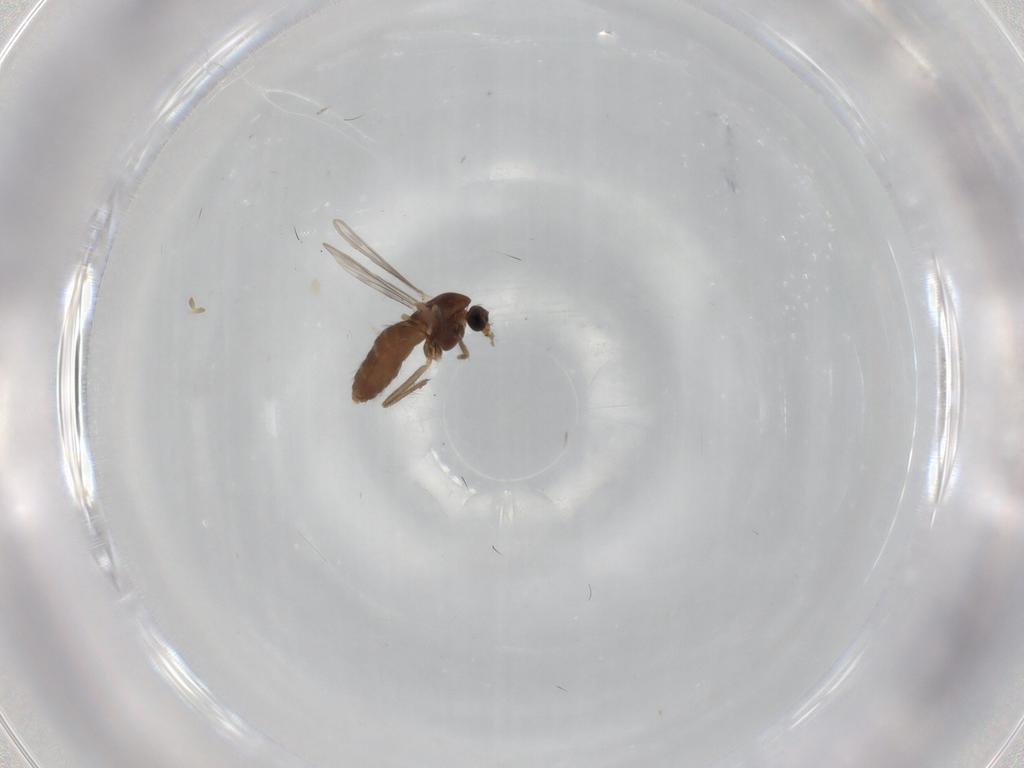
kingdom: Animalia
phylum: Arthropoda
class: Insecta
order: Diptera
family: Chironomidae
